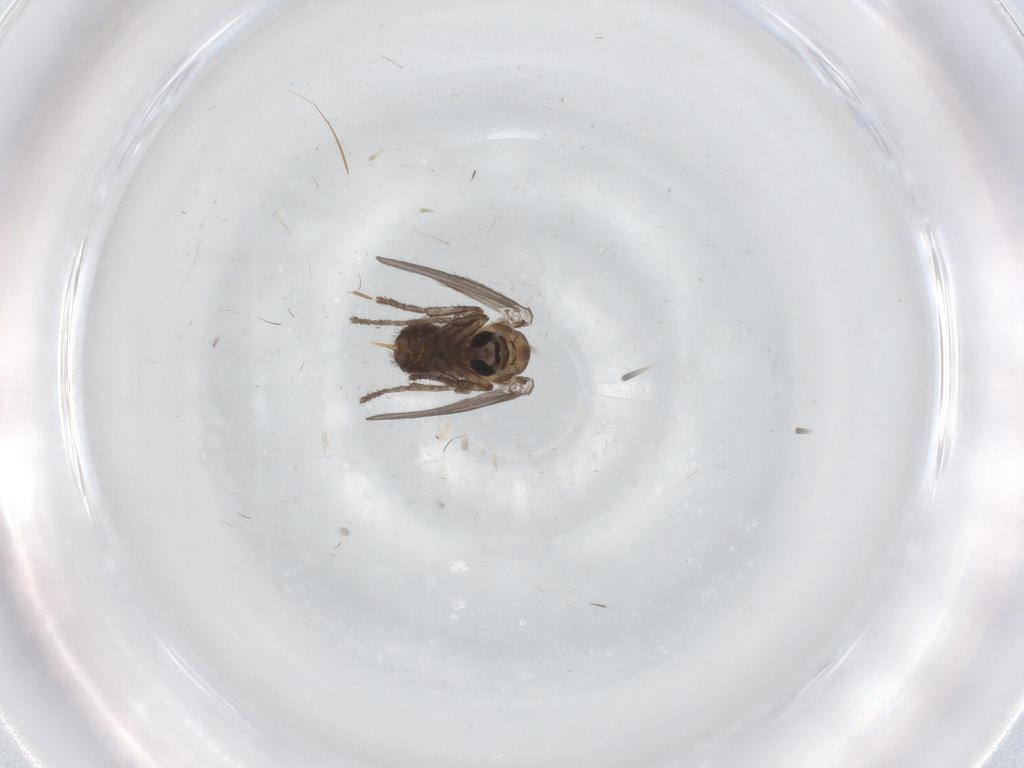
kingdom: Animalia
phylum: Arthropoda
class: Insecta
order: Diptera
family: Psychodidae
